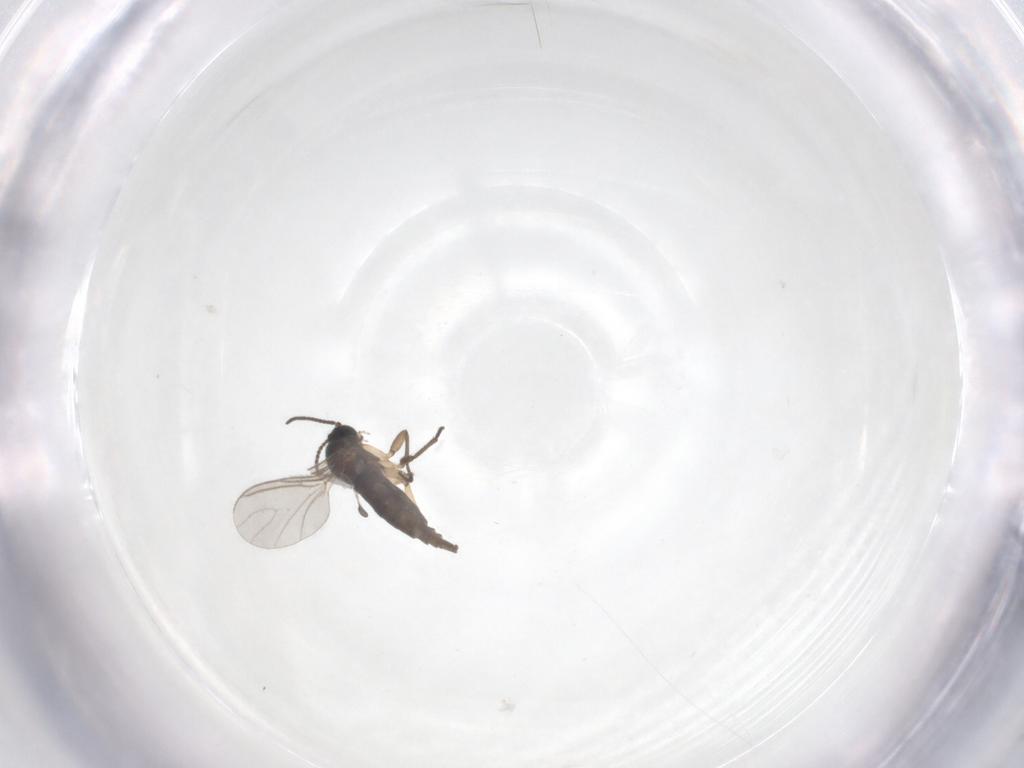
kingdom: Animalia
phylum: Arthropoda
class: Insecta
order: Diptera
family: Sciaridae
